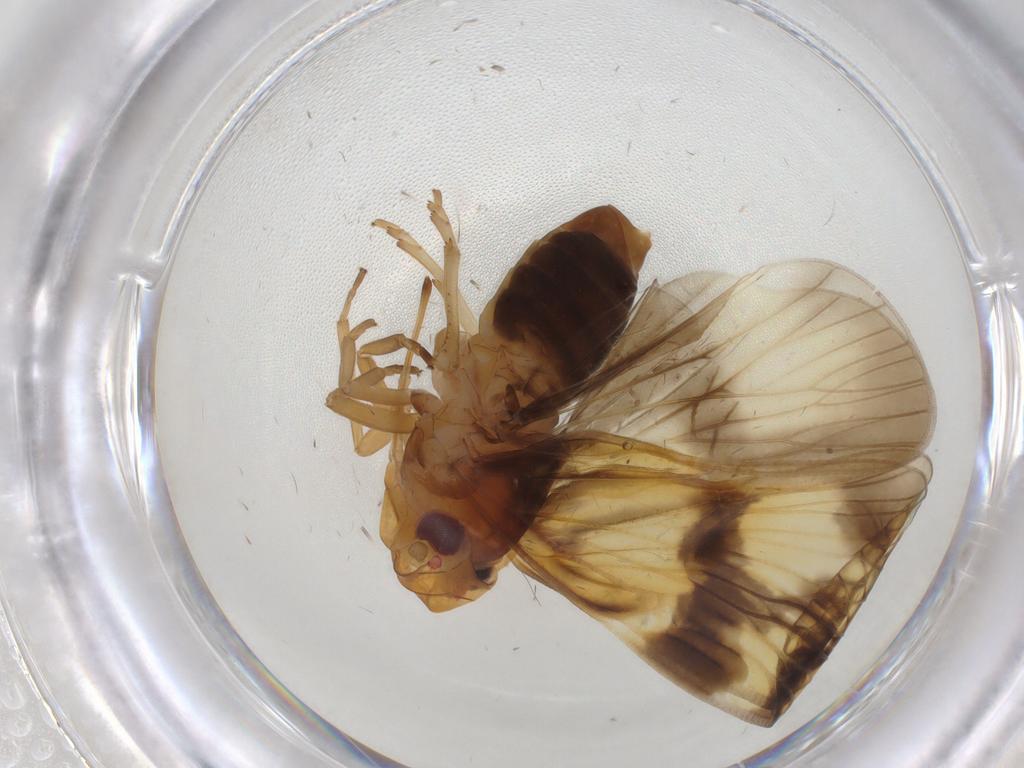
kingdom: Animalia
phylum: Arthropoda
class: Insecta
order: Hemiptera
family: Cixiidae
